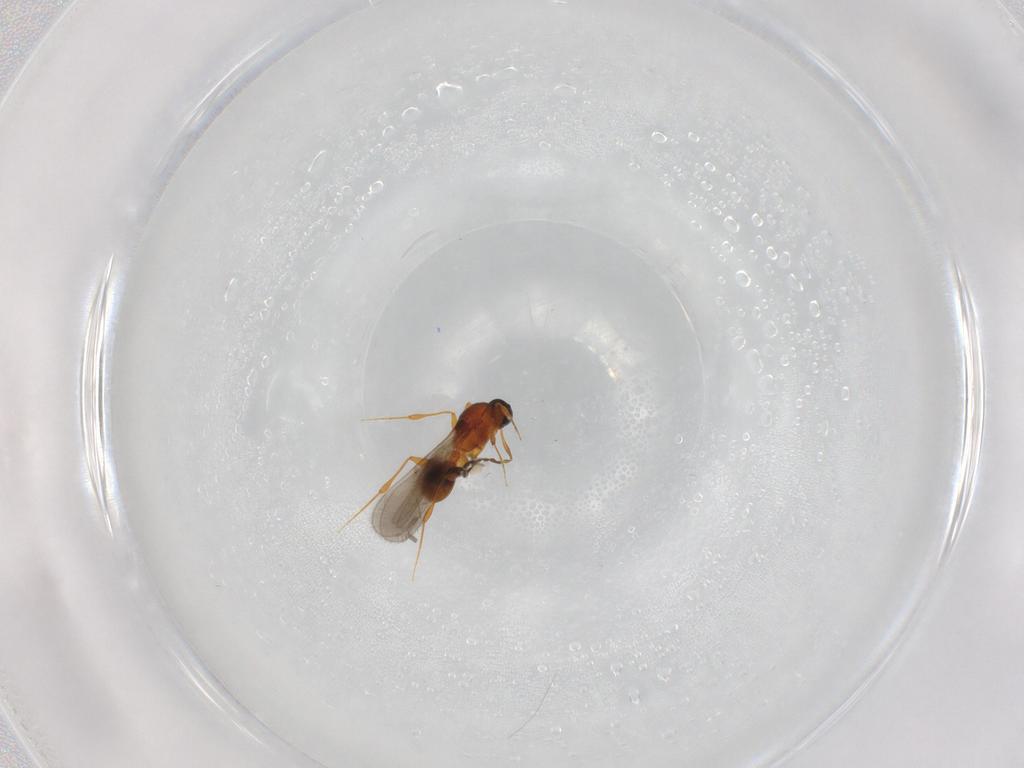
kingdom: Animalia
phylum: Arthropoda
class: Insecta
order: Hymenoptera
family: Platygastridae
